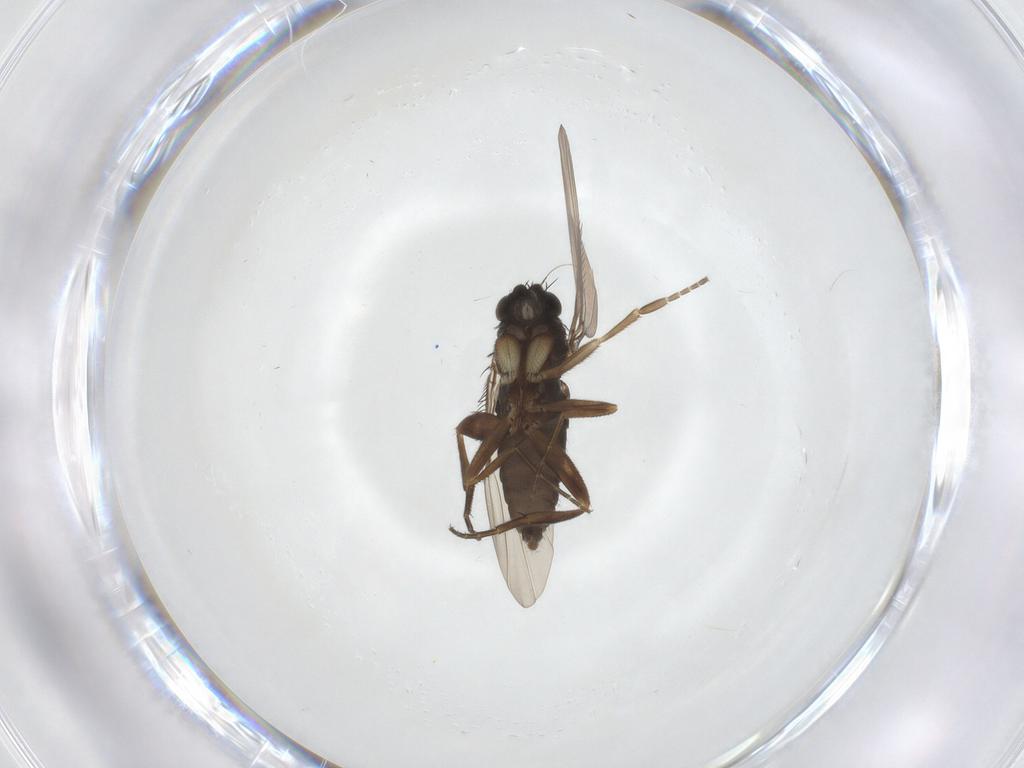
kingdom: Animalia
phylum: Arthropoda
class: Insecta
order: Diptera
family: Phoridae
